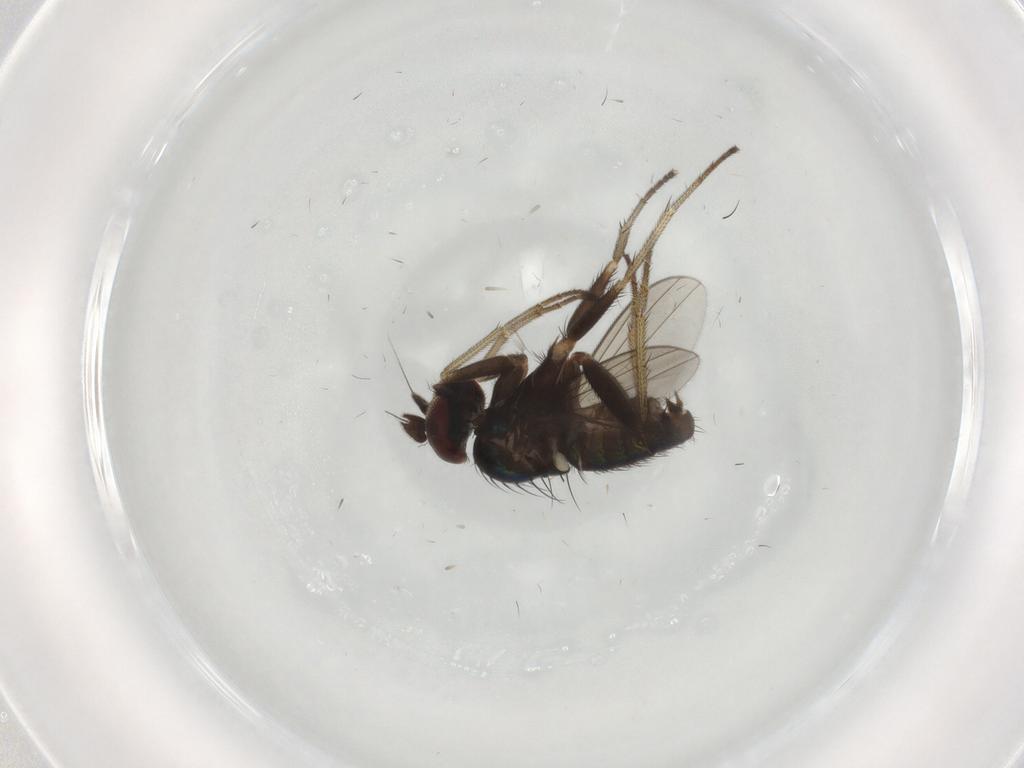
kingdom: Animalia
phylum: Arthropoda
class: Insecta
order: Diptera
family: Dolichopodidae
